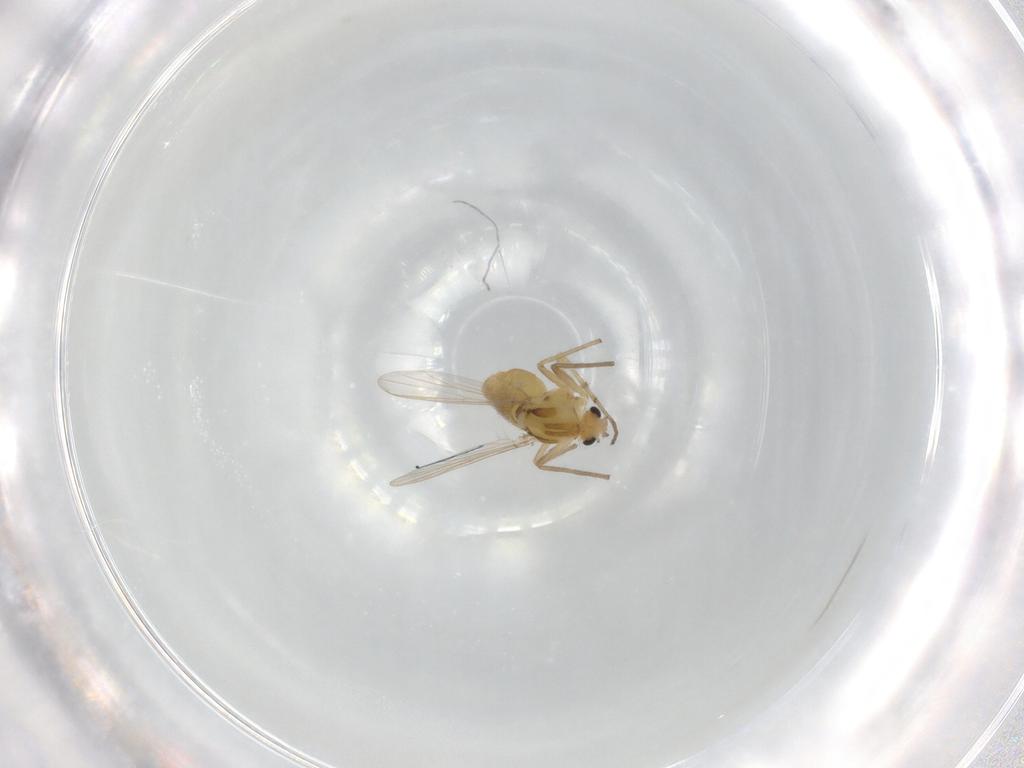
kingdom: Animalia
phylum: Arthropoda
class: Insecta
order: Diptera
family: Chironomidae
